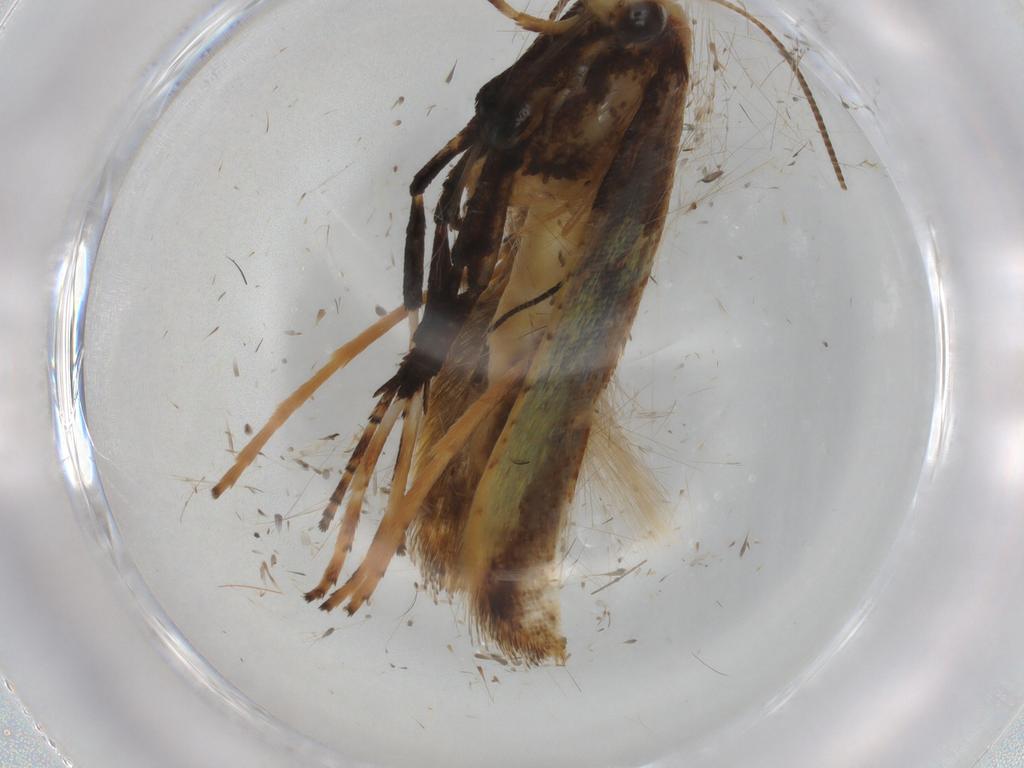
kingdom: Animalia
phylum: Arthropoda
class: Insecta
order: Lepidoptera
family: Gracillariidae
